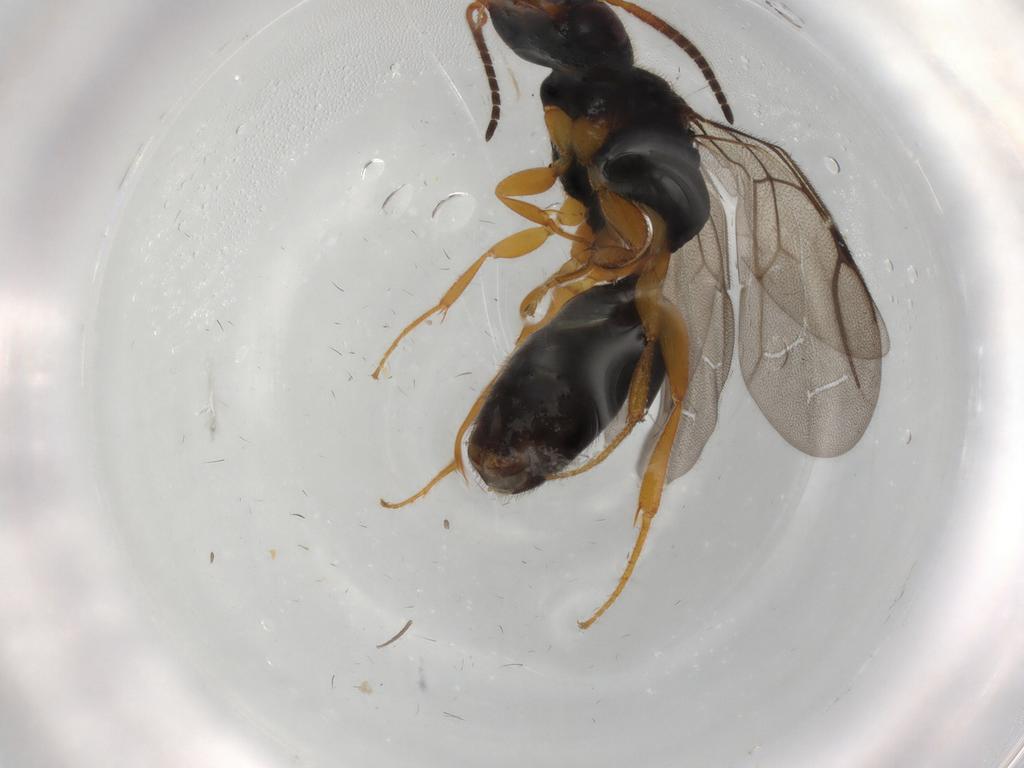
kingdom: Animalia
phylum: Arthropoda
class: Insecta
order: Hymenoptera
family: Bethylidae
